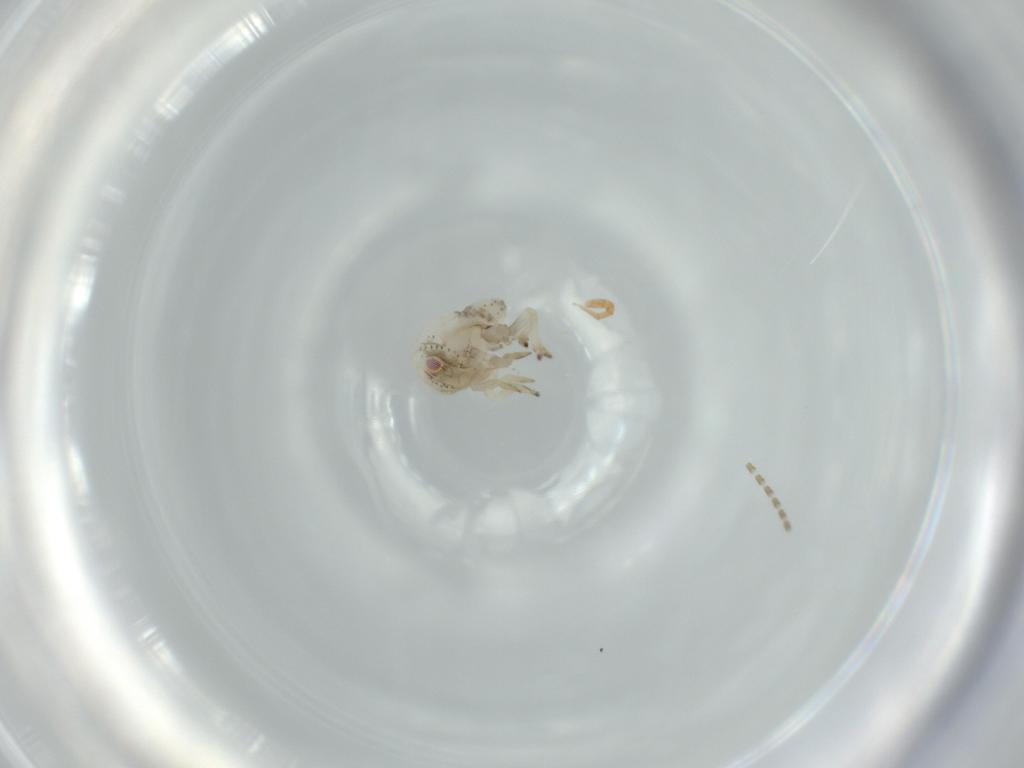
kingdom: Animalia
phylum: Arthropoda
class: Insecta
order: Hemiptera
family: Acanaloniidae
